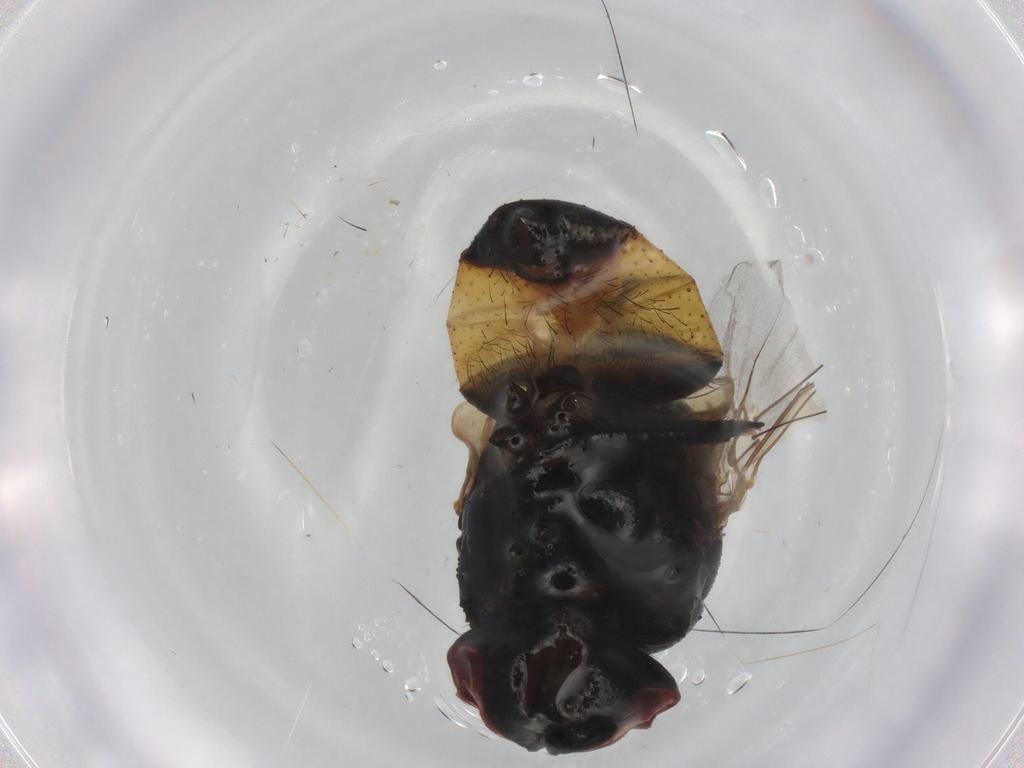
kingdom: Animalia
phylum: Arthropoda
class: Insecta
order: Diptera
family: Muscidae
